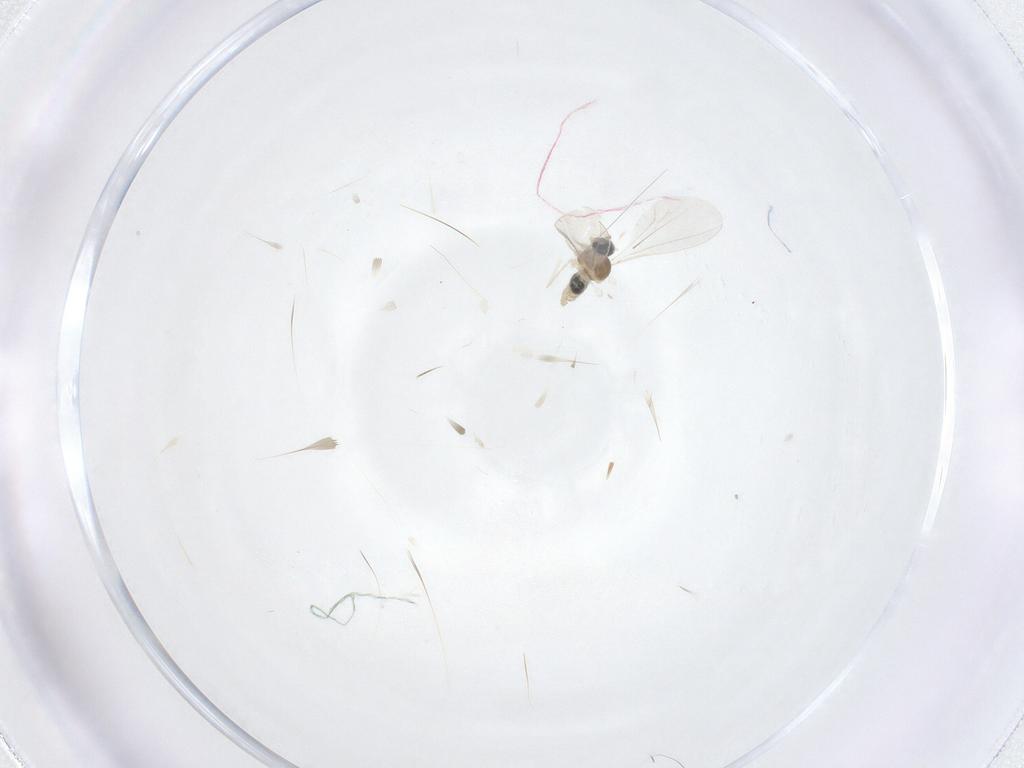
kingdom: Animalia
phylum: Arthropoda
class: Insecta
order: Diptera
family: Cecidomyiidae
